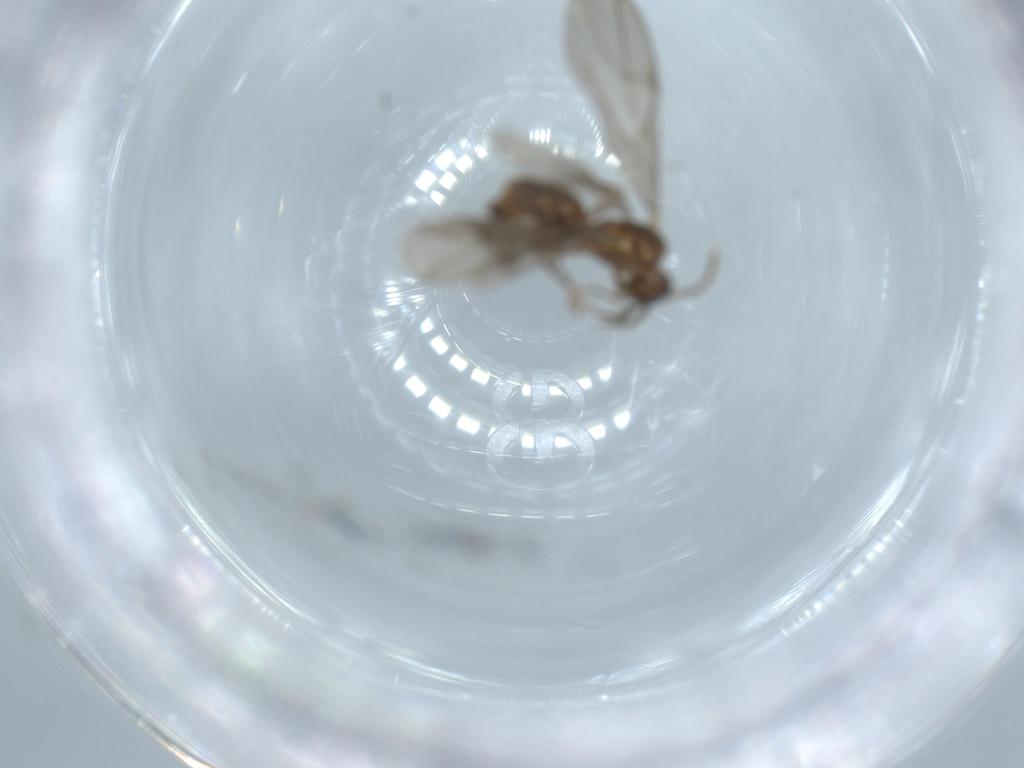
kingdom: Animalia
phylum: Arthropoda
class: Insecta
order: Hymenoptera
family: Formicidae
